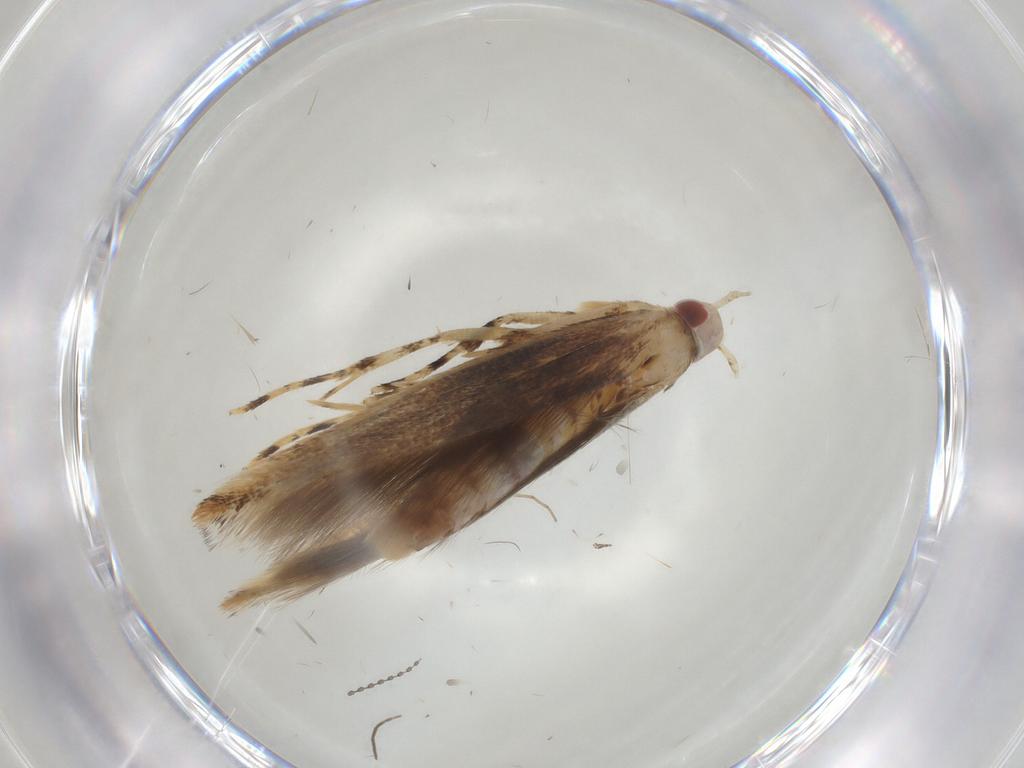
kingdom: Animalia
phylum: Arthropoda
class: Insecta
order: Lepidoptera
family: Cosmopterigidae
